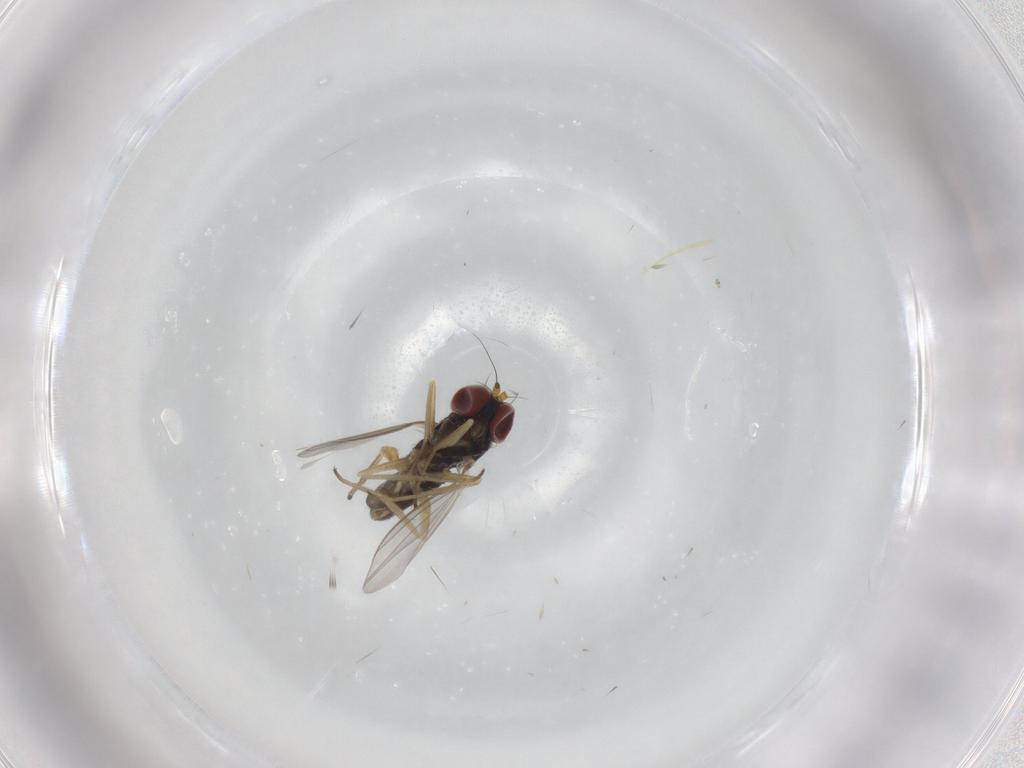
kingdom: Animalia
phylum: Arthropoda
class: Insecta
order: Diptera
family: Dolichopodidae
